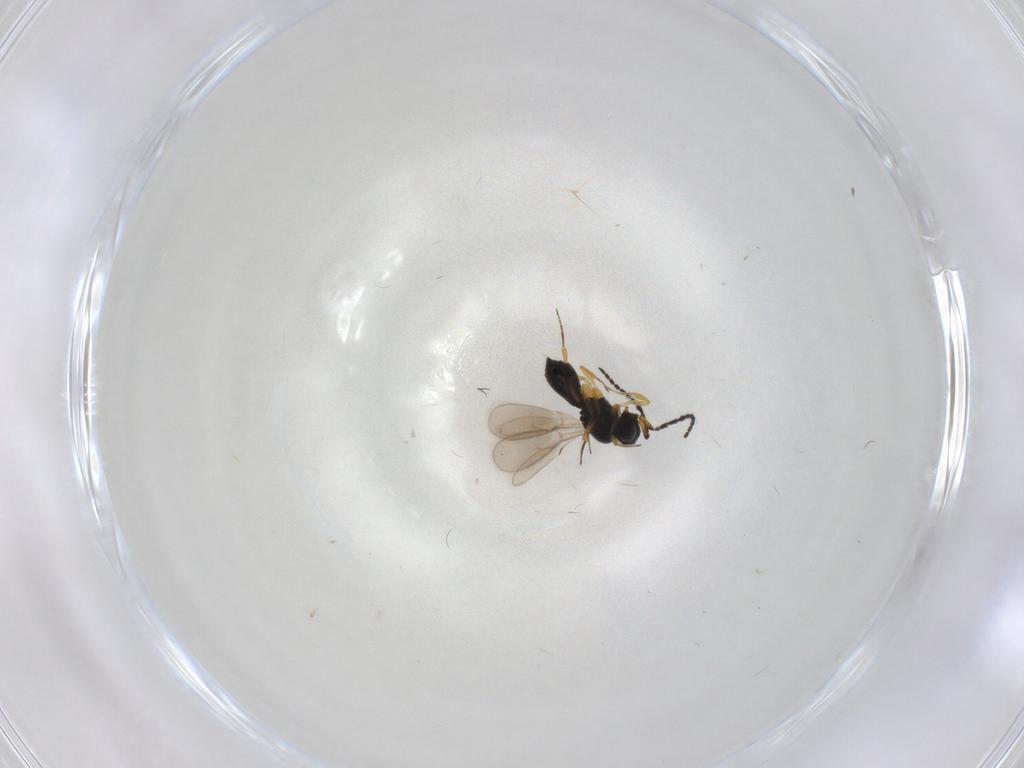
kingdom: Animalia
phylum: Arthropoda
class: Insecta
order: Hymenoptera
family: Scelionidae
